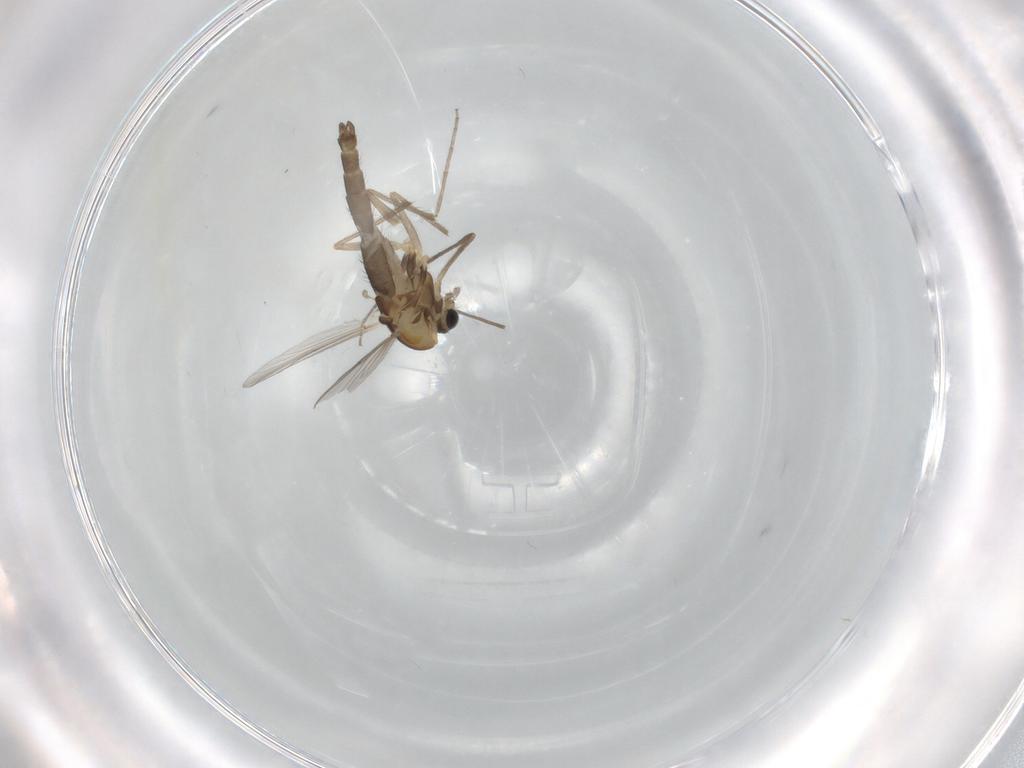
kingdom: Animalia
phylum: Arthropoda
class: Insecta
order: Diptera
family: Chironomidae
